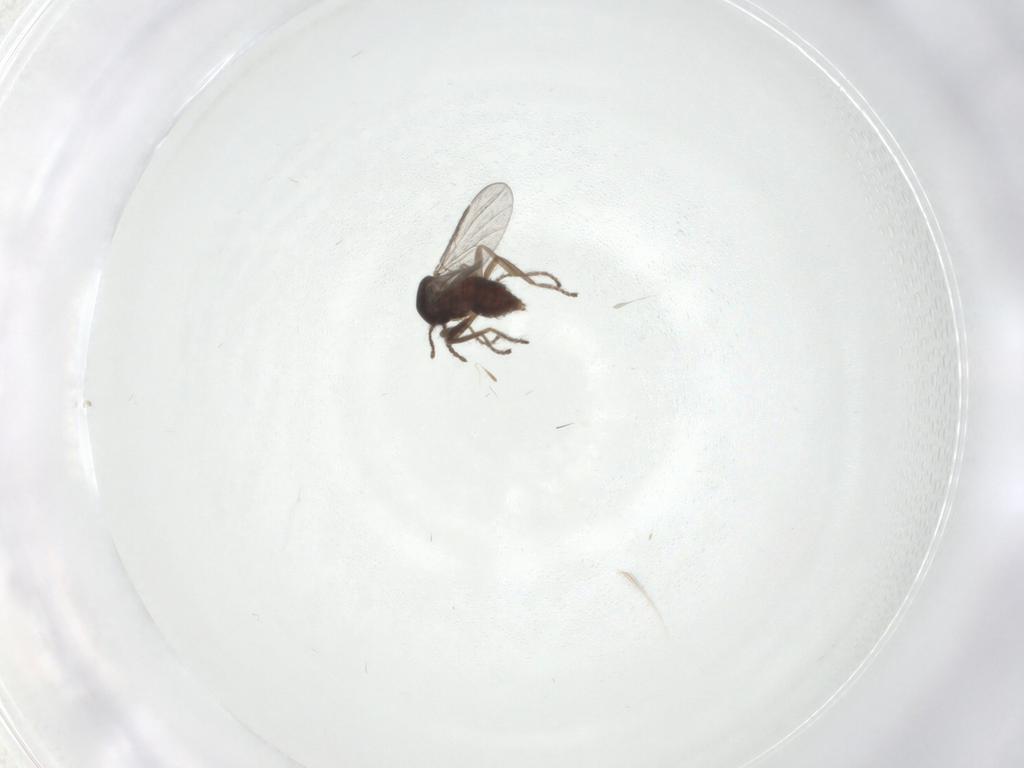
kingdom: Animalia
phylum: Arthropoda
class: Insecta
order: Diptera
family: Ceratopogonidae
